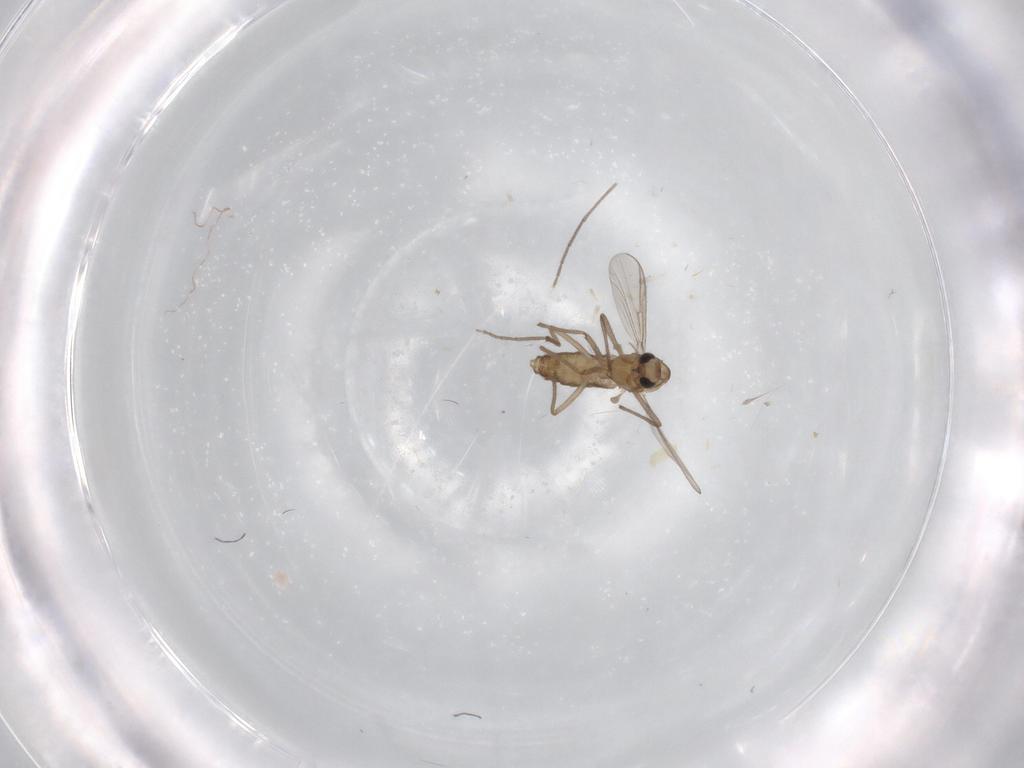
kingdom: Animalia
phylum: Arthropoda
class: Insecta
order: Diptera
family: Chironomidae
